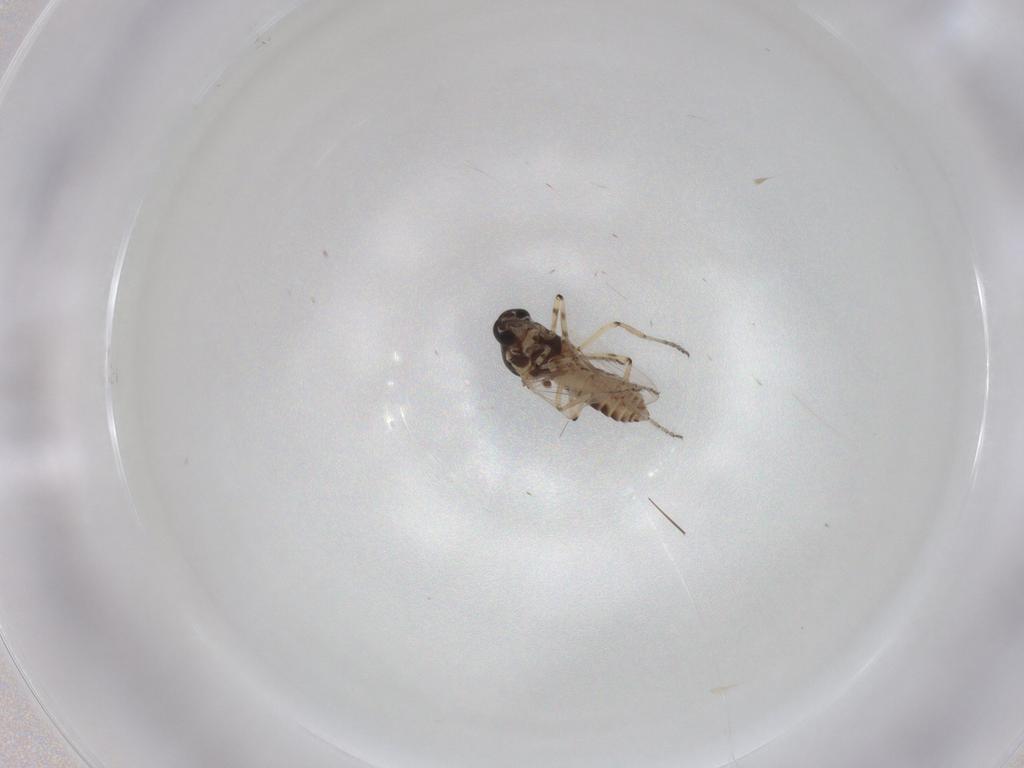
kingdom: Animalia
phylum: Arthropoda
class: Insecta
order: Diptera
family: Ceratopogonidae
